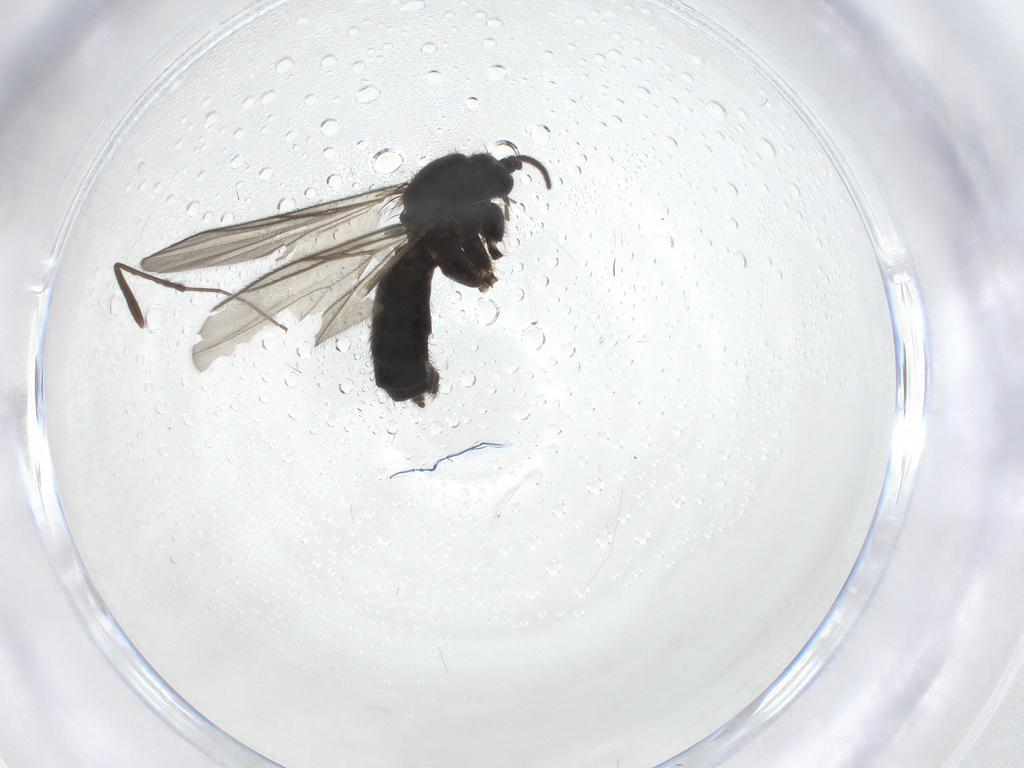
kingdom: Animalia
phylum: Arthropoda
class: Insecta
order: Diptera
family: Chironomidae
